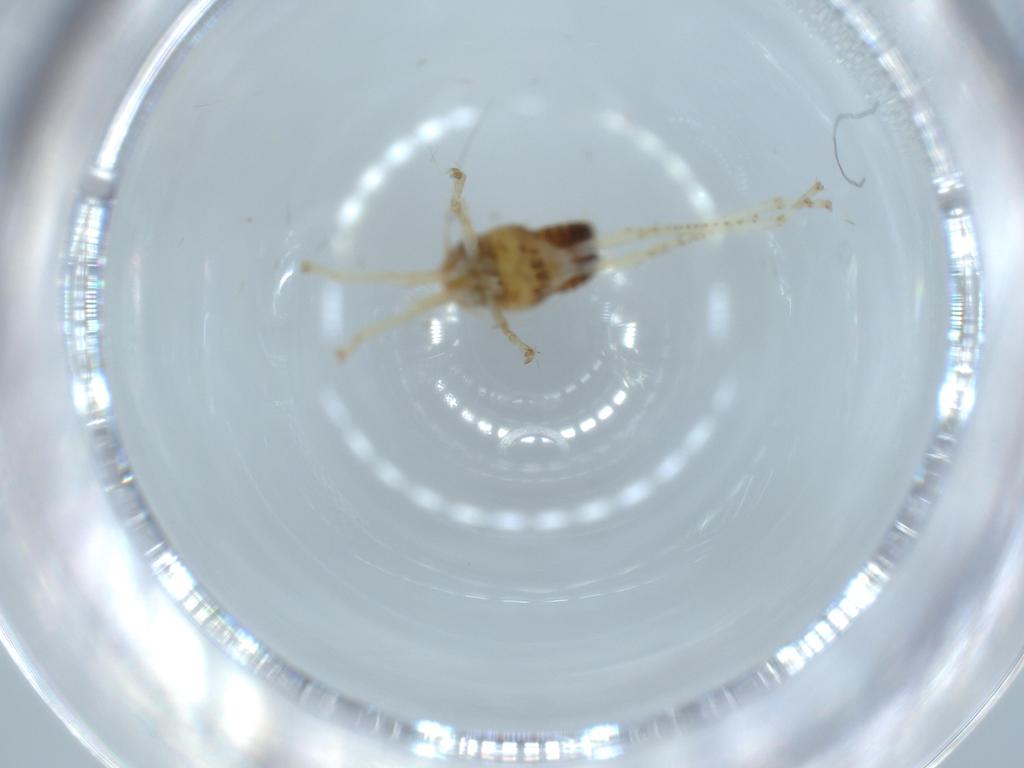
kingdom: Animalia
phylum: Arthropoda
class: Insecta
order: Hemiptera
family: Cicadellidae
